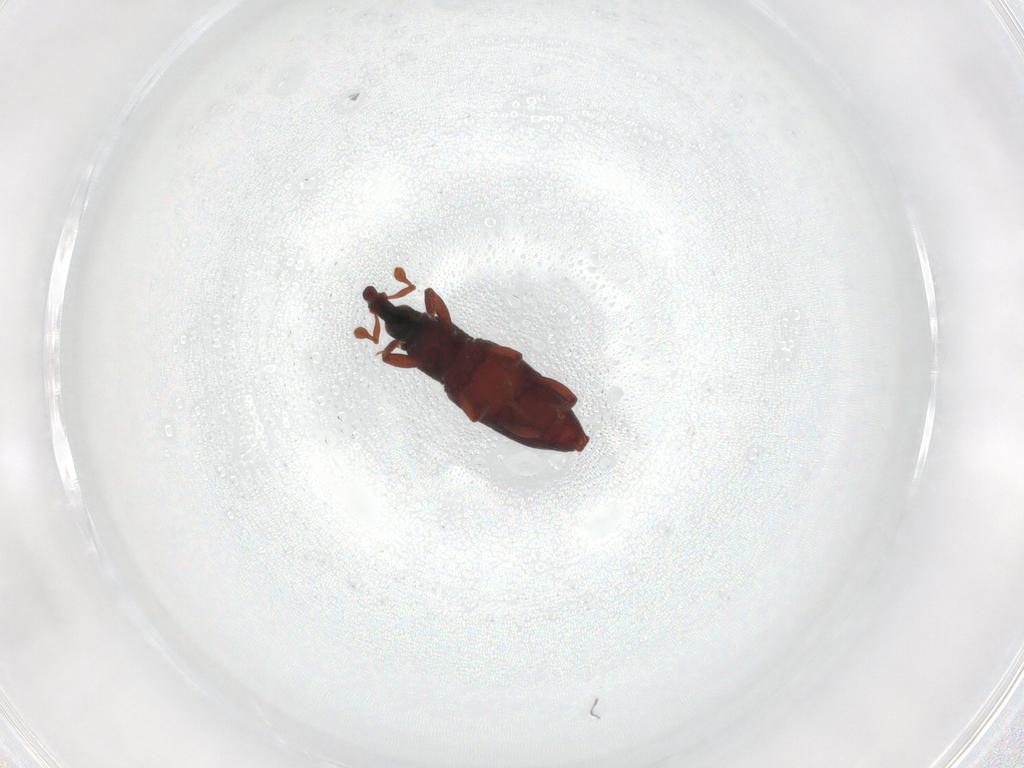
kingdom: Animalia
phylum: Arthropoda
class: Insecta
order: Coleoptera
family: Curculionidae
